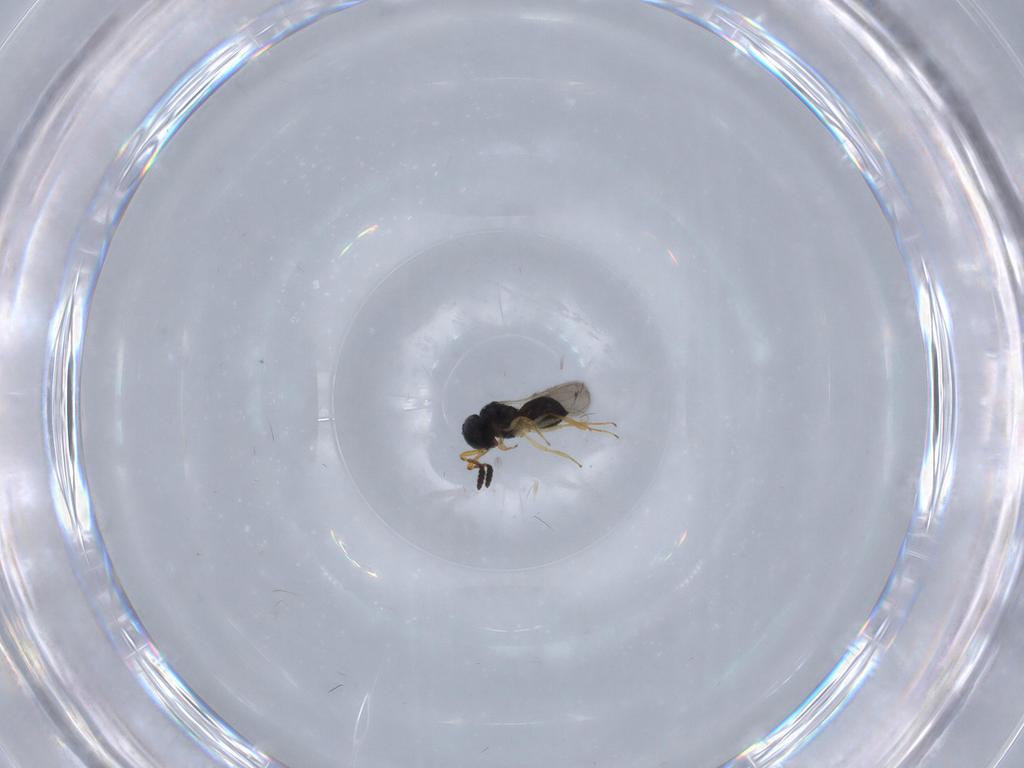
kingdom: Animalia
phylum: Arthropoda
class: Insecta
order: Hymenoptera
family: Scelionidae
